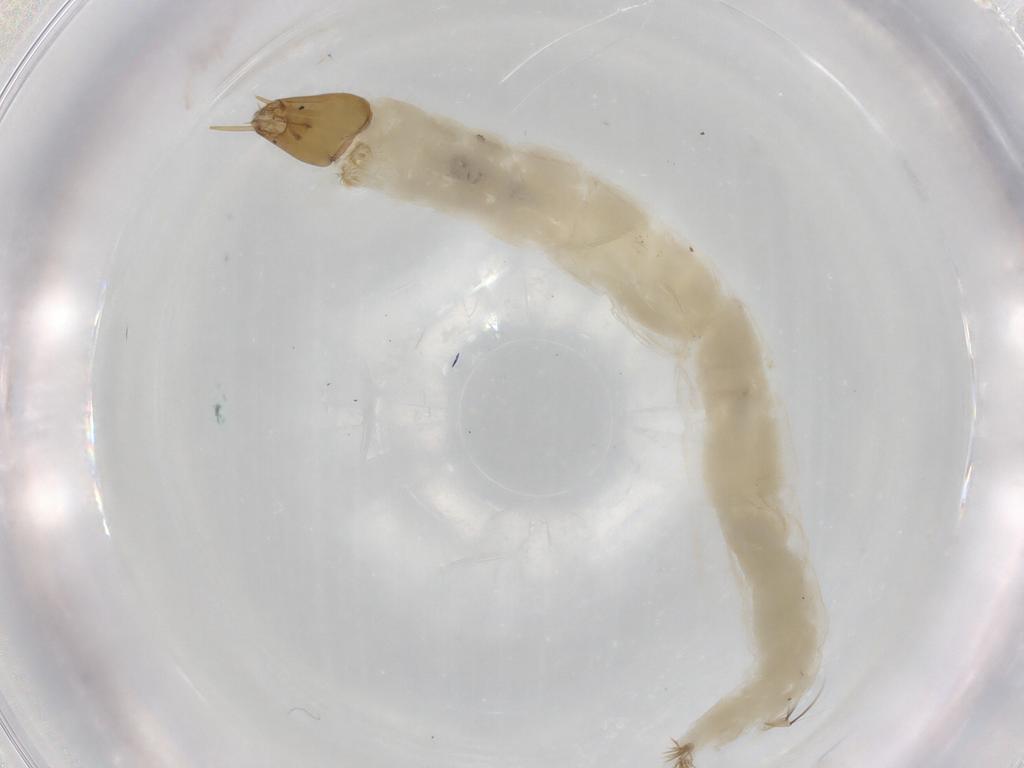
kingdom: Animalia
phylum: Arthropoda
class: Insecta
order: Diptera
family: Chironomidae
